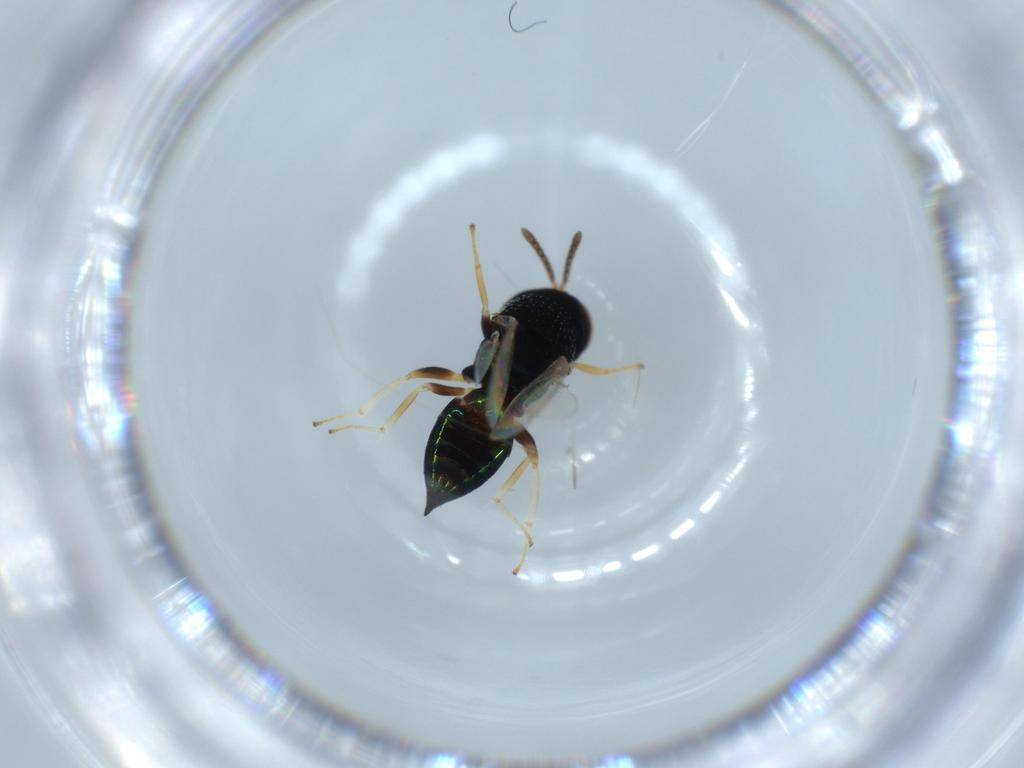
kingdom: Animalia
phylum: Arthropoda
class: Insecta
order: Hymenoptera
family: Pteromalidae
